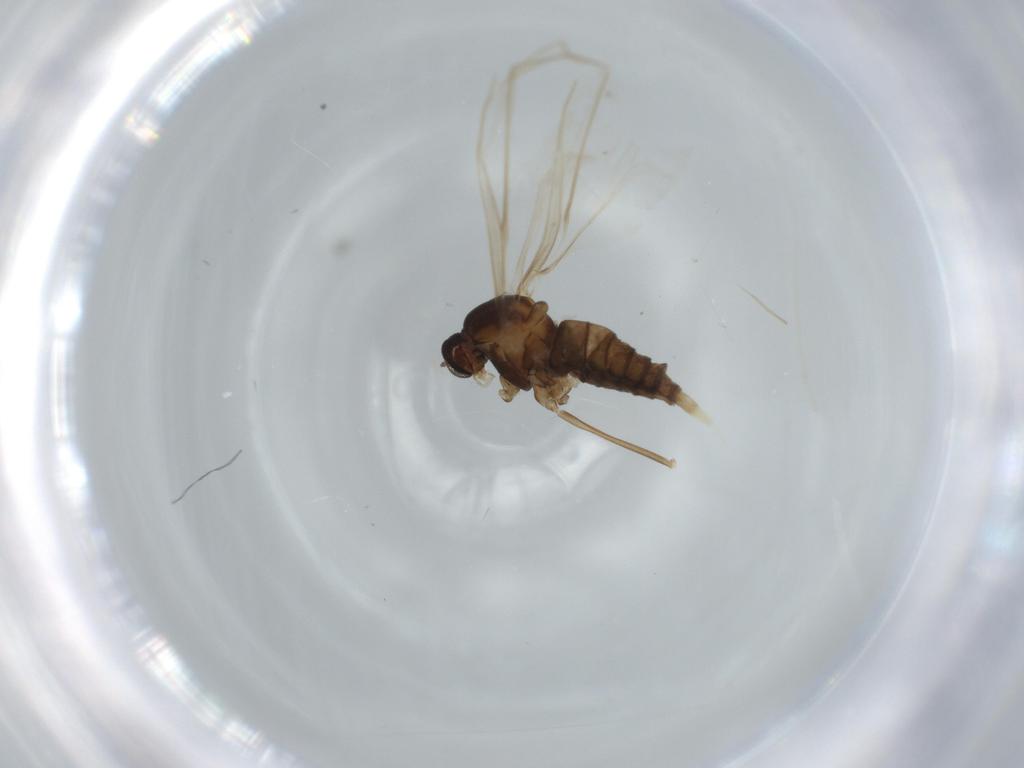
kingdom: Animalia
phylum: Arthropoda
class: Insecta
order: Diptera
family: Cecidomyiidae
